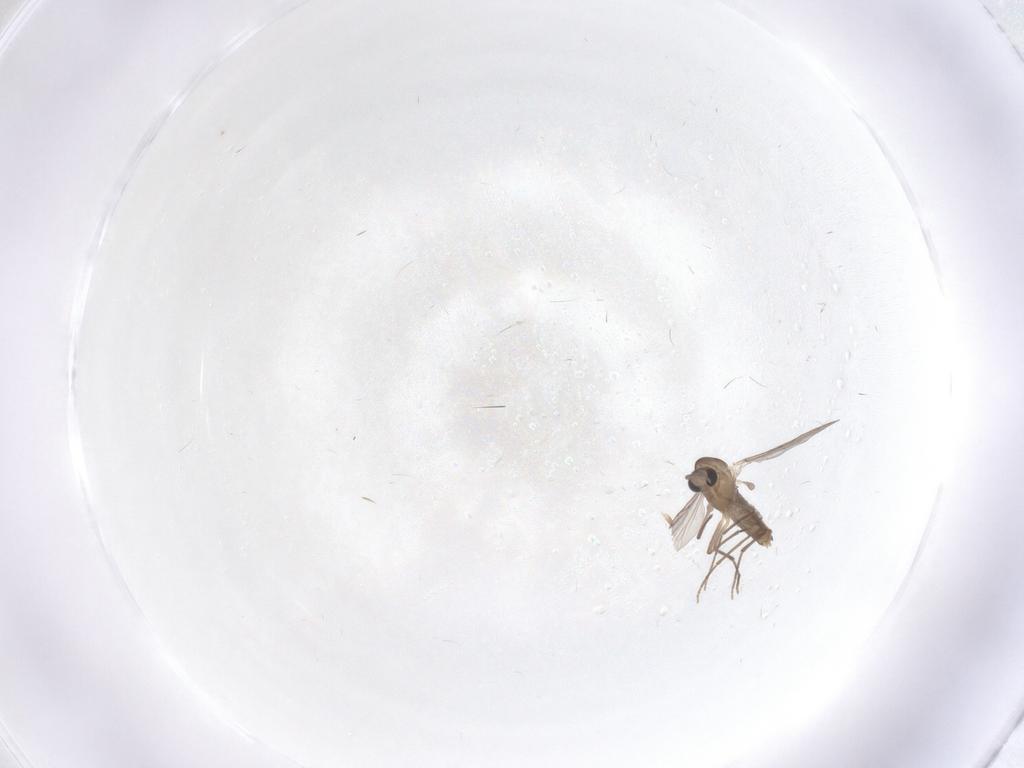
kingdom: Animalia
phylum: Arthropoda
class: Insecta
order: Diptera
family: Chironomidae
